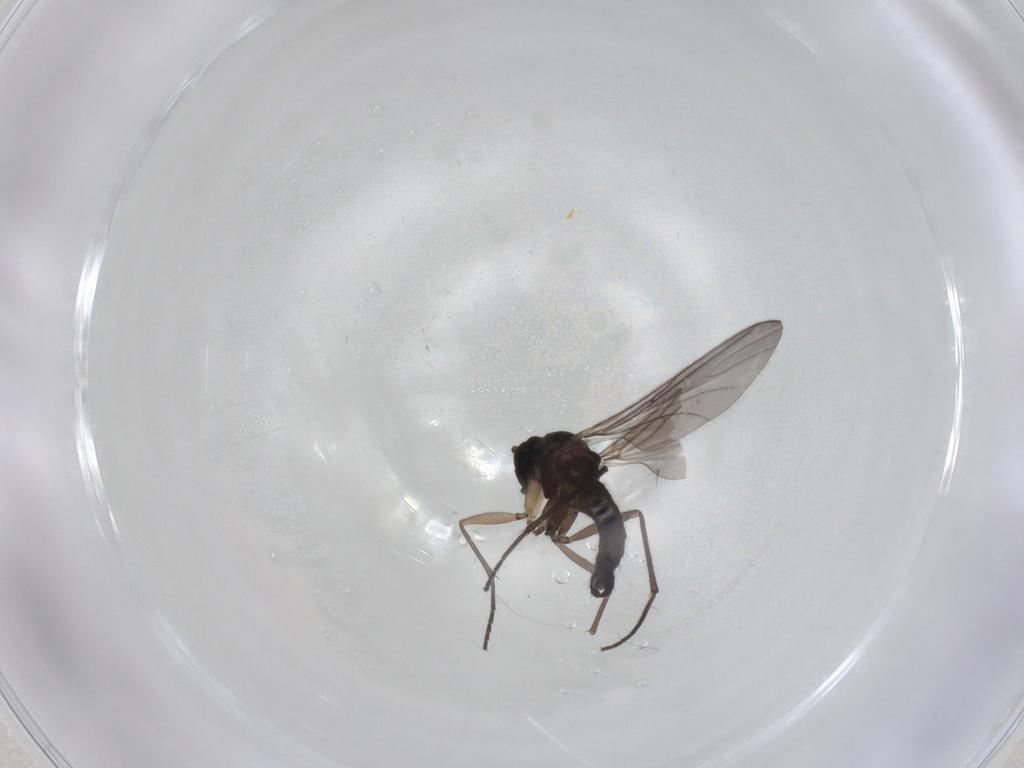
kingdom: Animalia
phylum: Arthropoda
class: Insecta
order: Diptera
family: Sciaridae
